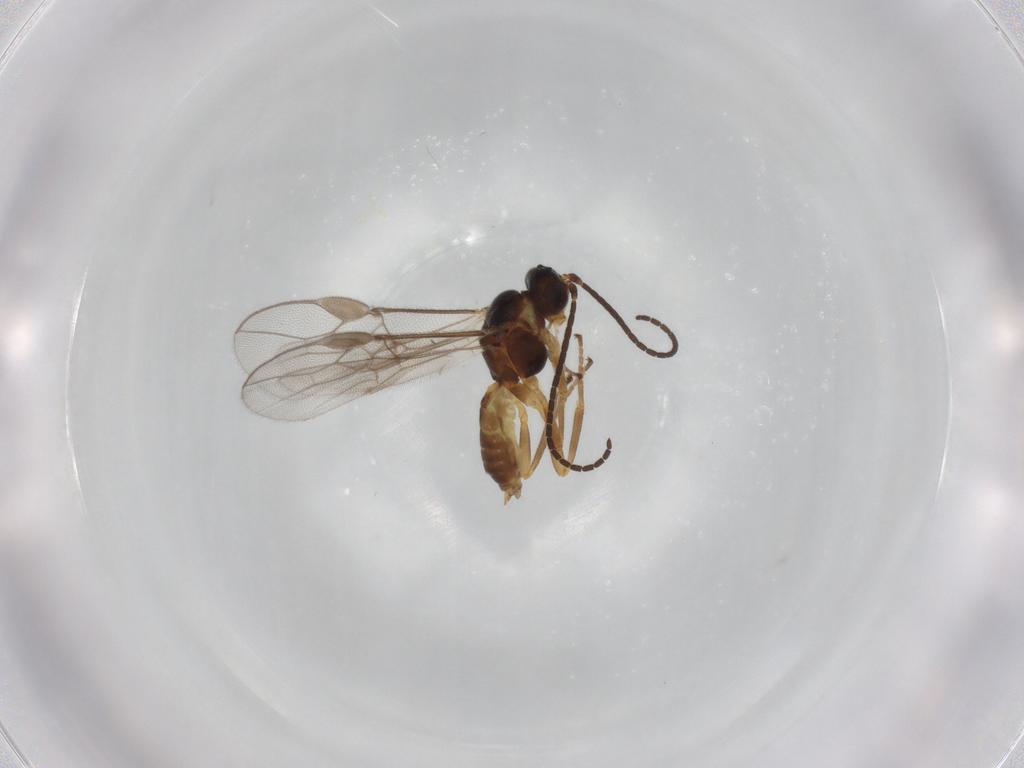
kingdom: Animalia
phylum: Arthropoda
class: Insecta
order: Hymenoptera
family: Braconidae
